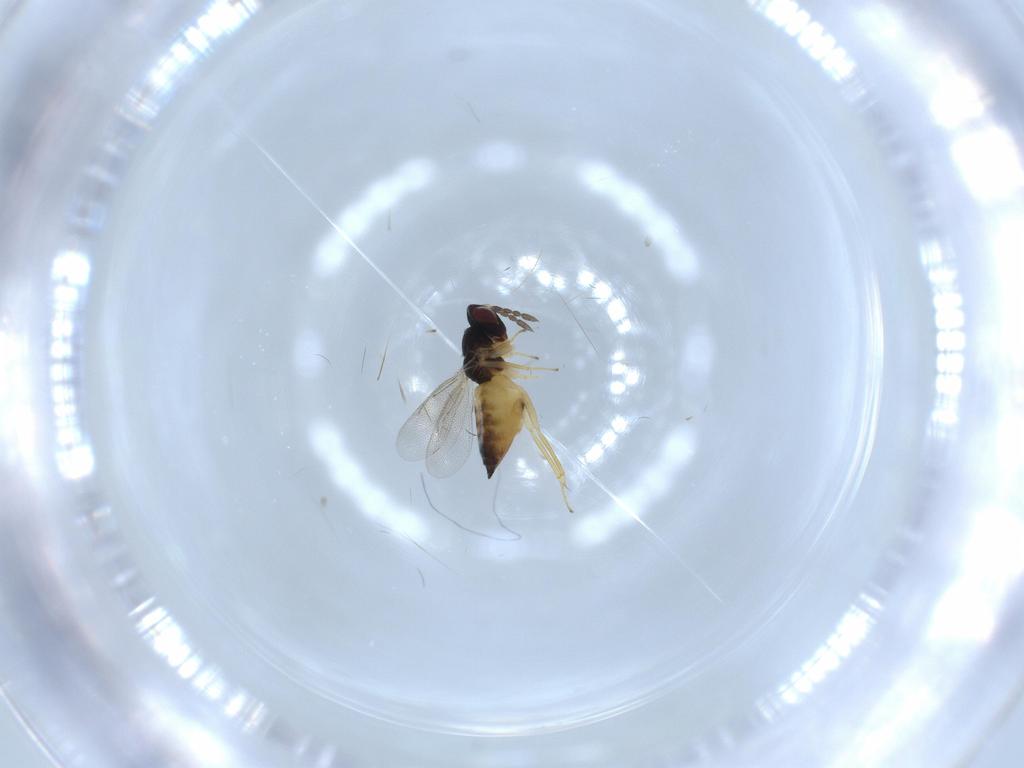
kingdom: Animalia
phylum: Arthropoda
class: Insecta
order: Hymenoptera
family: Eulophidae
